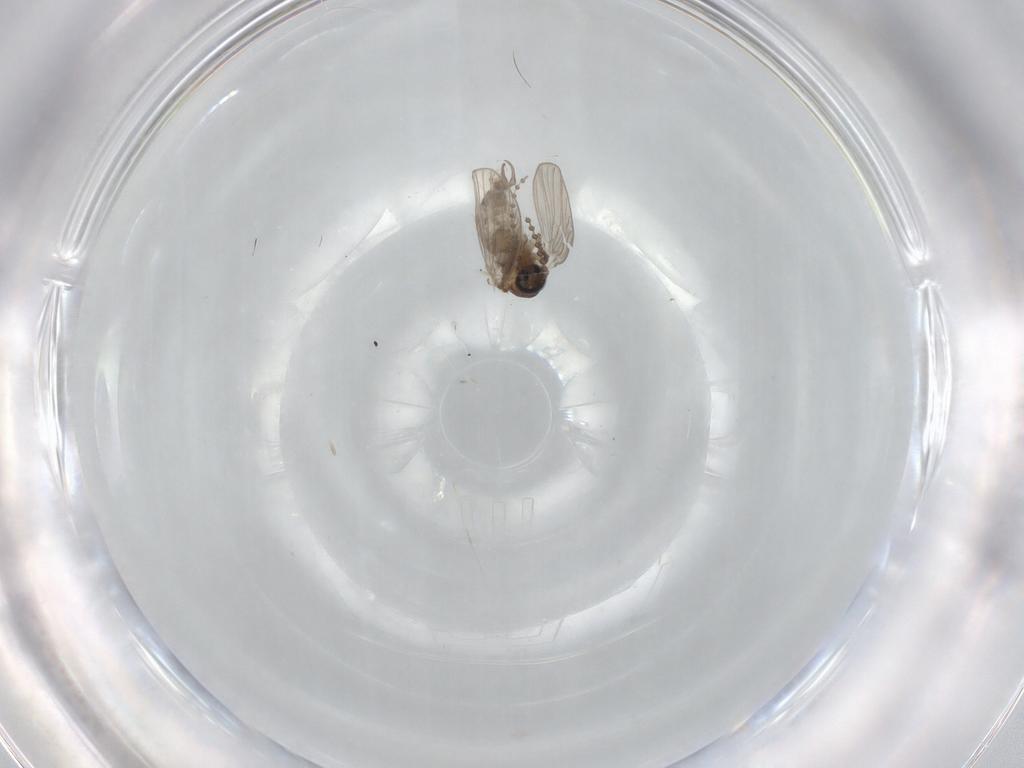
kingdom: Animalia
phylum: Arthropoda
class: Insecta
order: Diptera
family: Psychodidae
